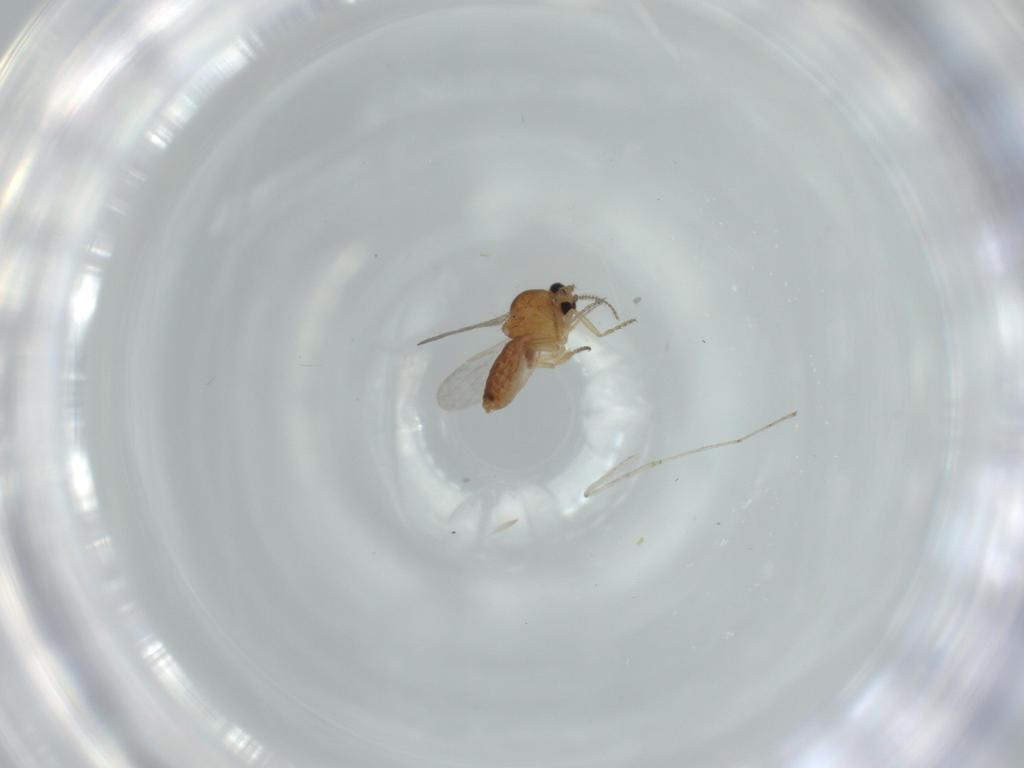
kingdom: Animalia
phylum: Arthropoda
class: Insecta
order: Diptera
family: Ceratopogonidae
